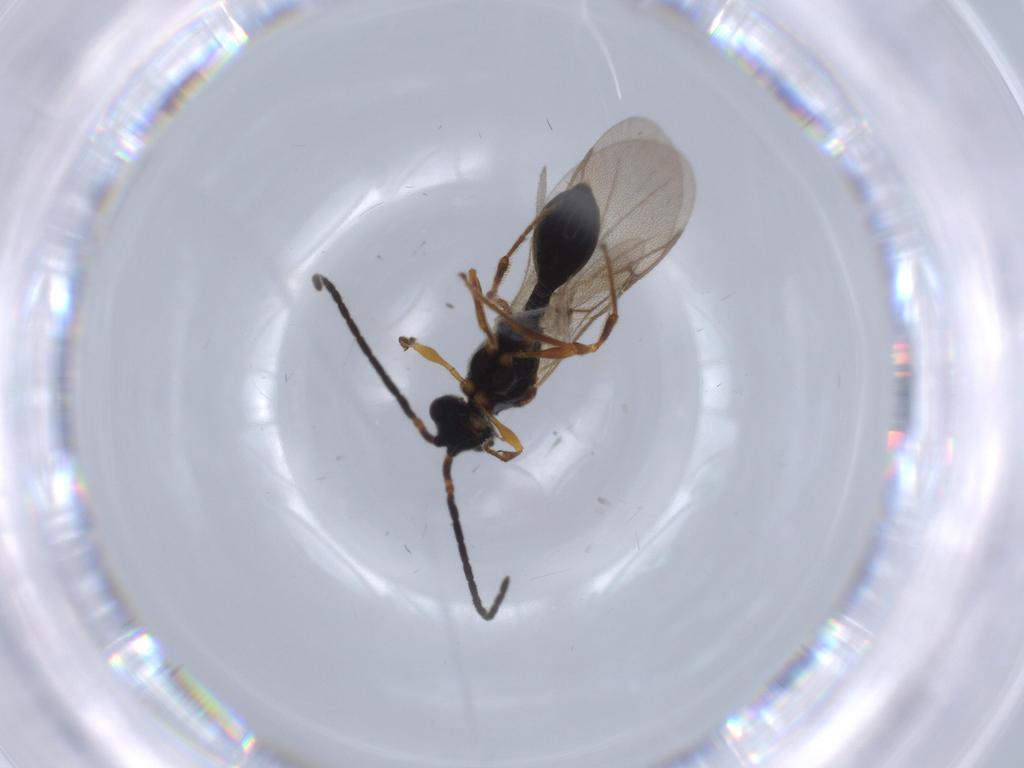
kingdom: Animalia
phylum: Arthropoda
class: Insecta
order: Hymenoptera
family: Diapriidae
